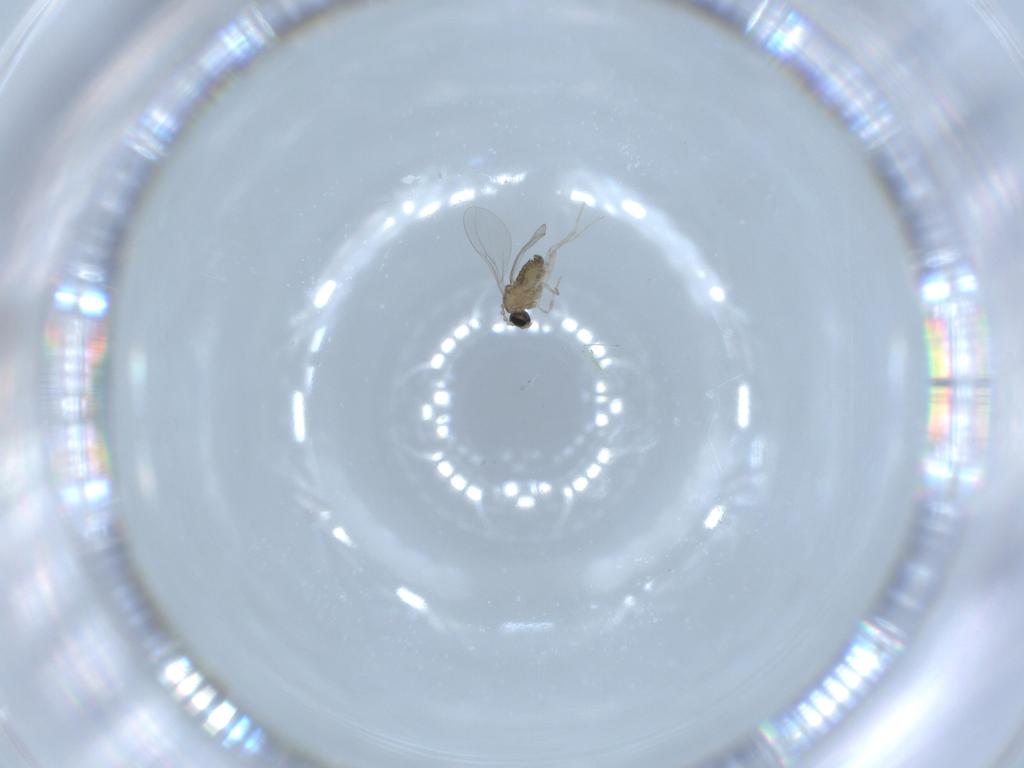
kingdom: Animalia
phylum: Arthropoda
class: Insecta
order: Diptera
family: Cecidomyiidae
